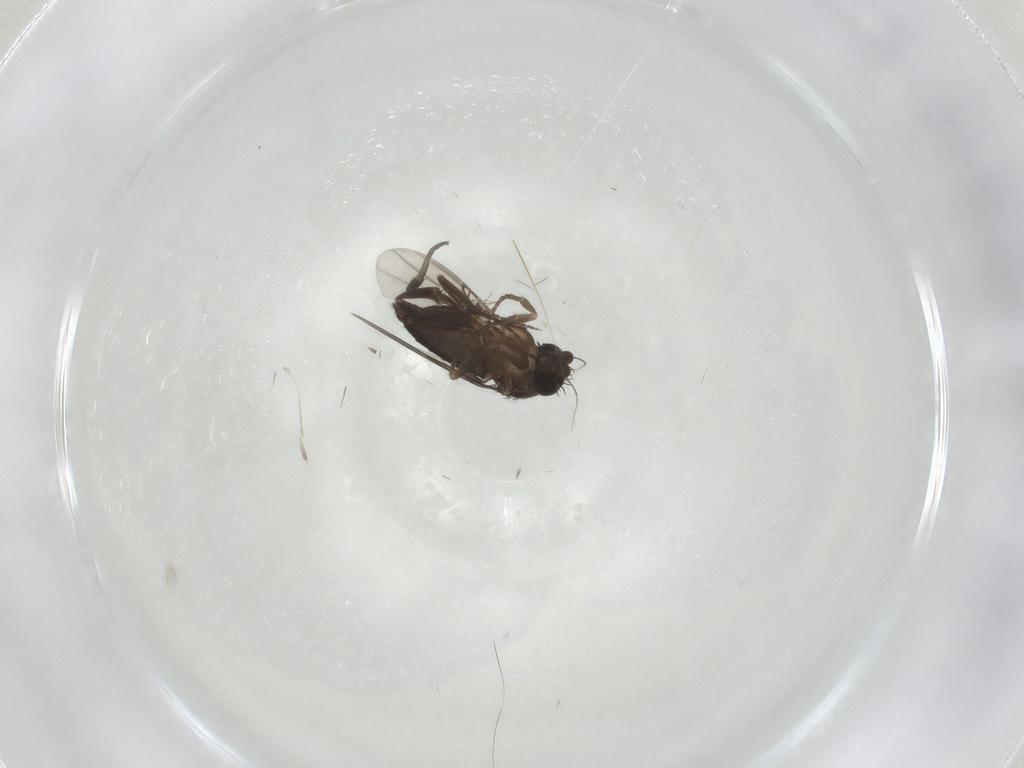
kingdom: Animalia
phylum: Arthropoda
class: Insecta
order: Diptera
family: Phoridae
